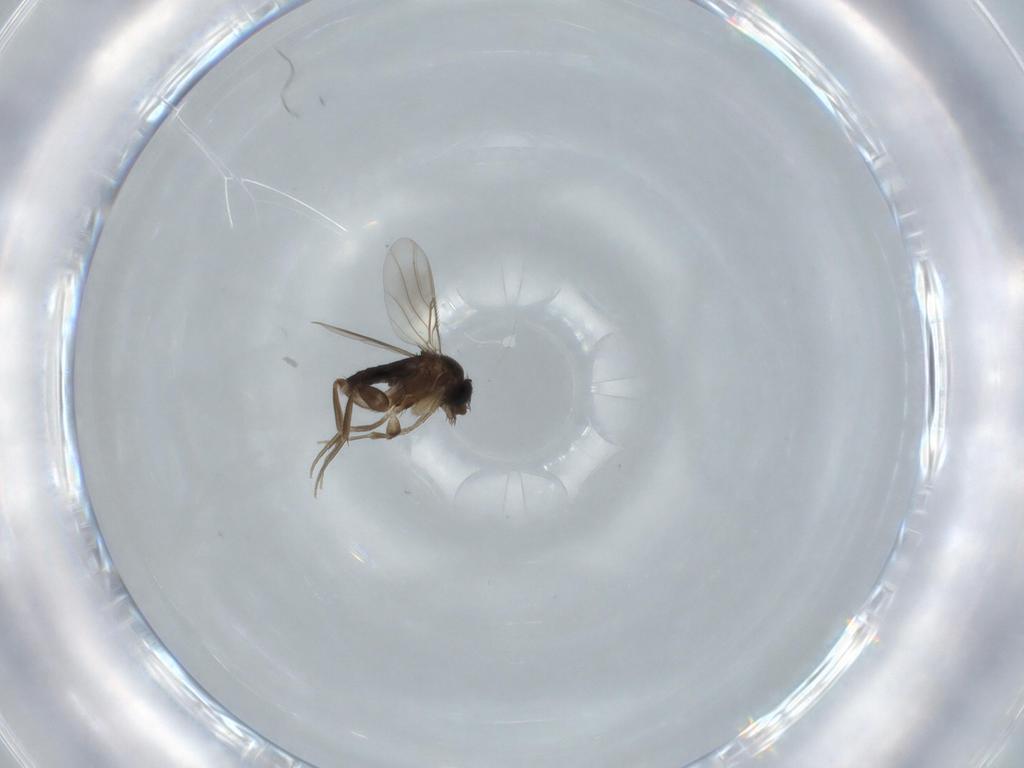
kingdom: Animalia
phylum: Arthropoda
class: Insecta
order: Diptera
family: Phoridae
